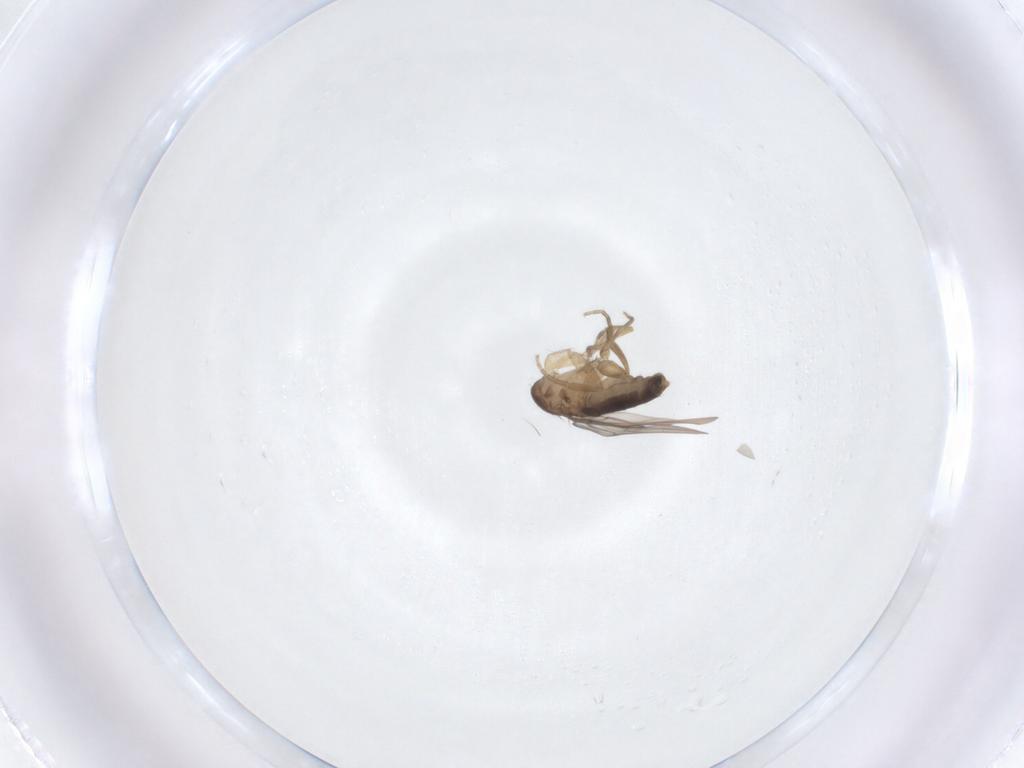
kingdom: Animalia
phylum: Arthropoda
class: Insecta
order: Diptera
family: Phoridae
